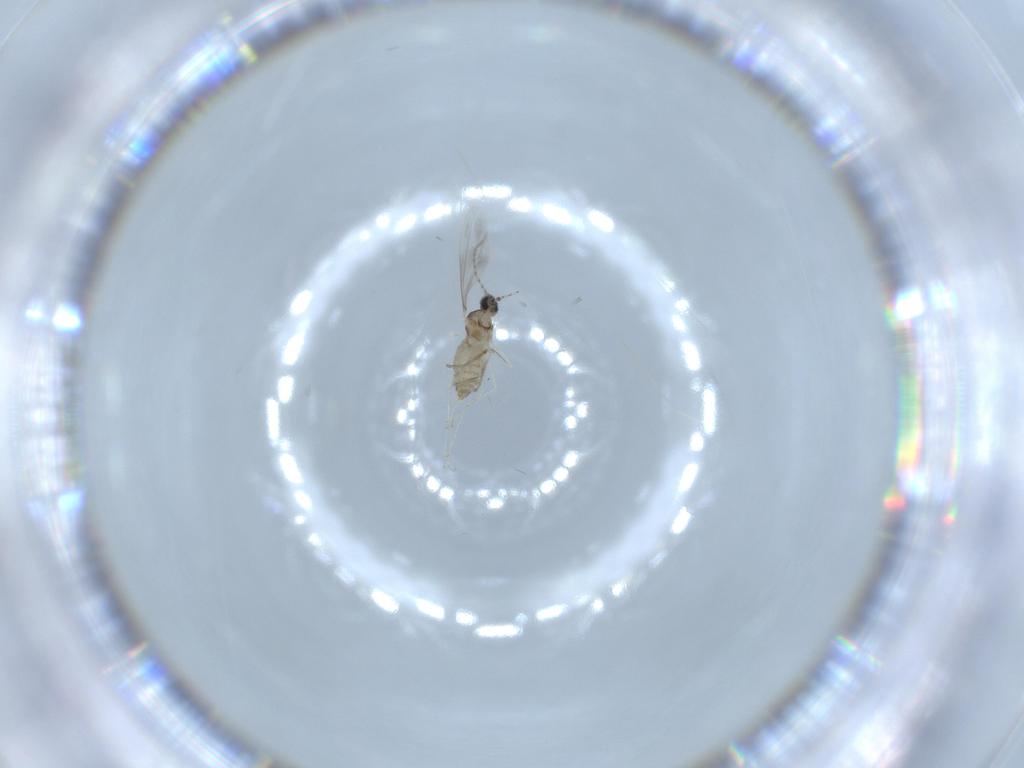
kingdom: Animalia
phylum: Arthropoda
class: Insecta
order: Diptera
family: Cecidomyiidae
